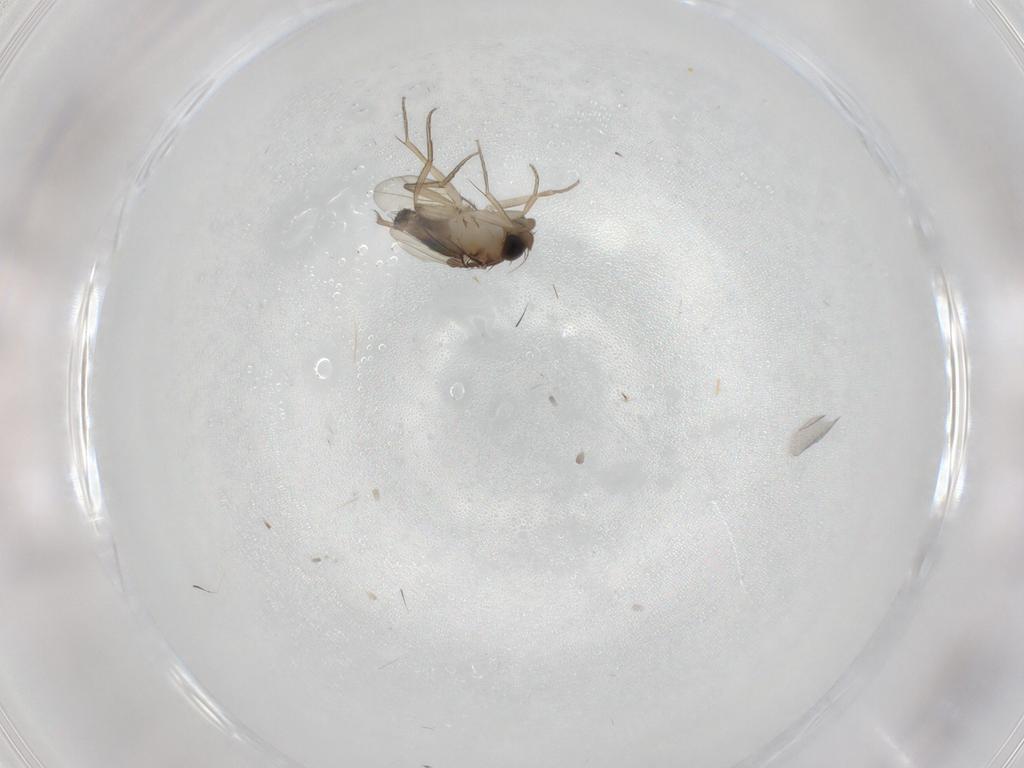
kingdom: Animalia
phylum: Arthropoda
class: Insecta
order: Diptera
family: Cecidomyiidae
